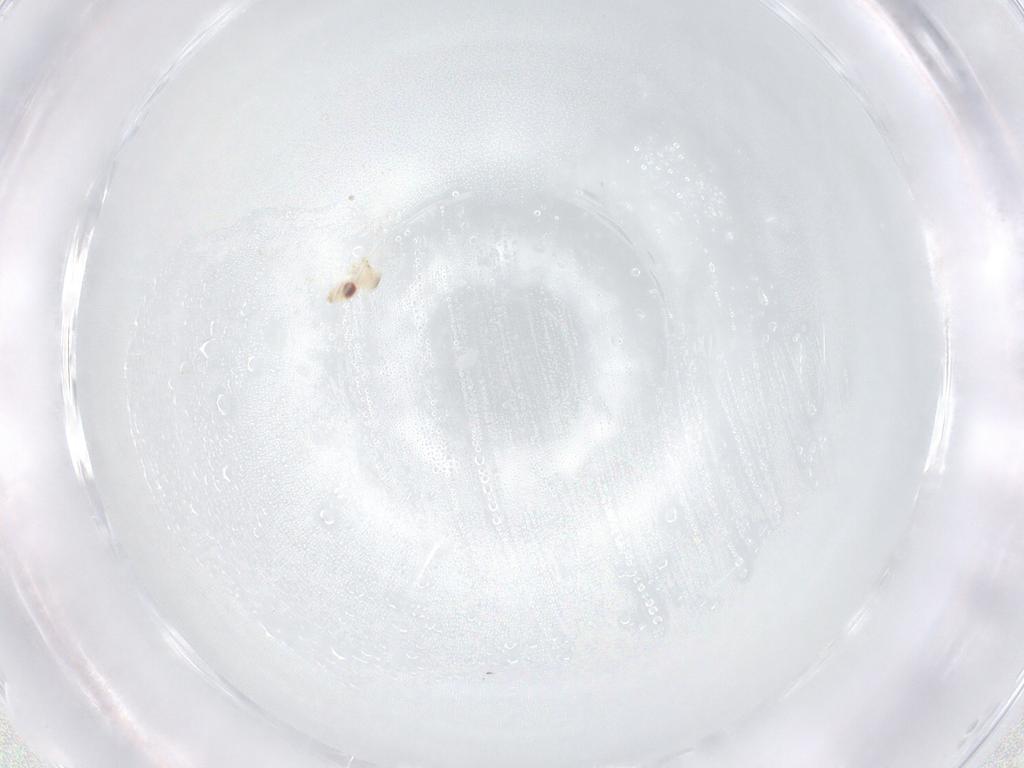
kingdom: Animalia
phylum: Arthropoda
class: Insecta
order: Diptera
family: Cecidomyiidae
